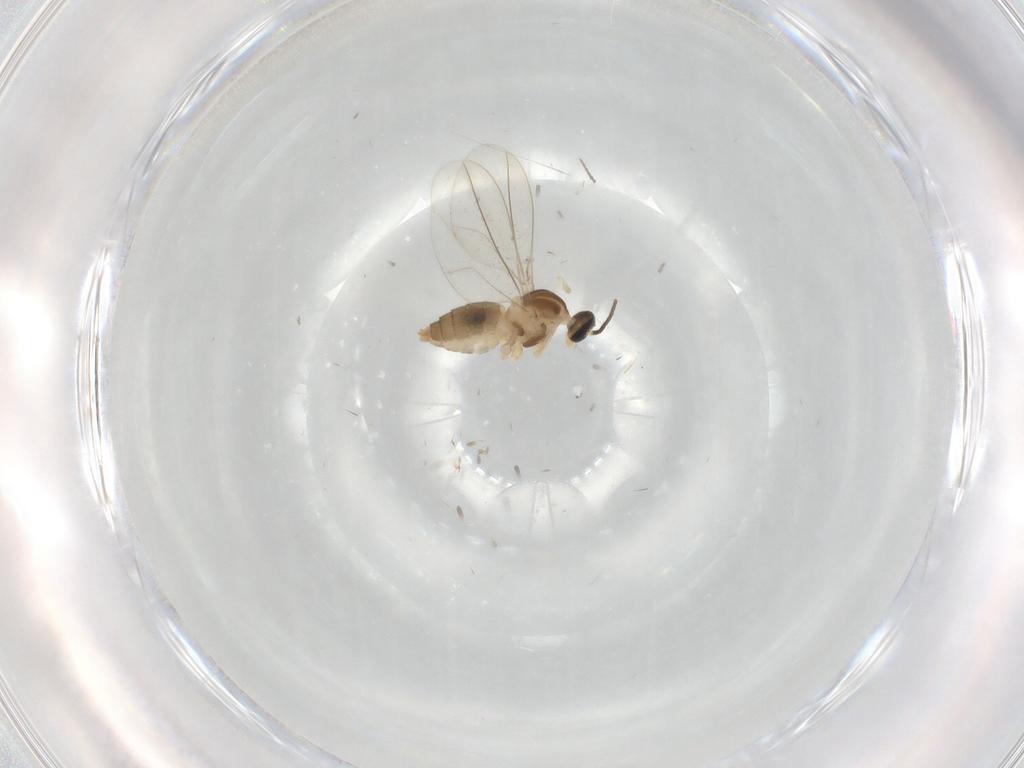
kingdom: Animalia
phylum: Arthropoda
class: Insecta
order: Diptera
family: Cecidomyiidae
